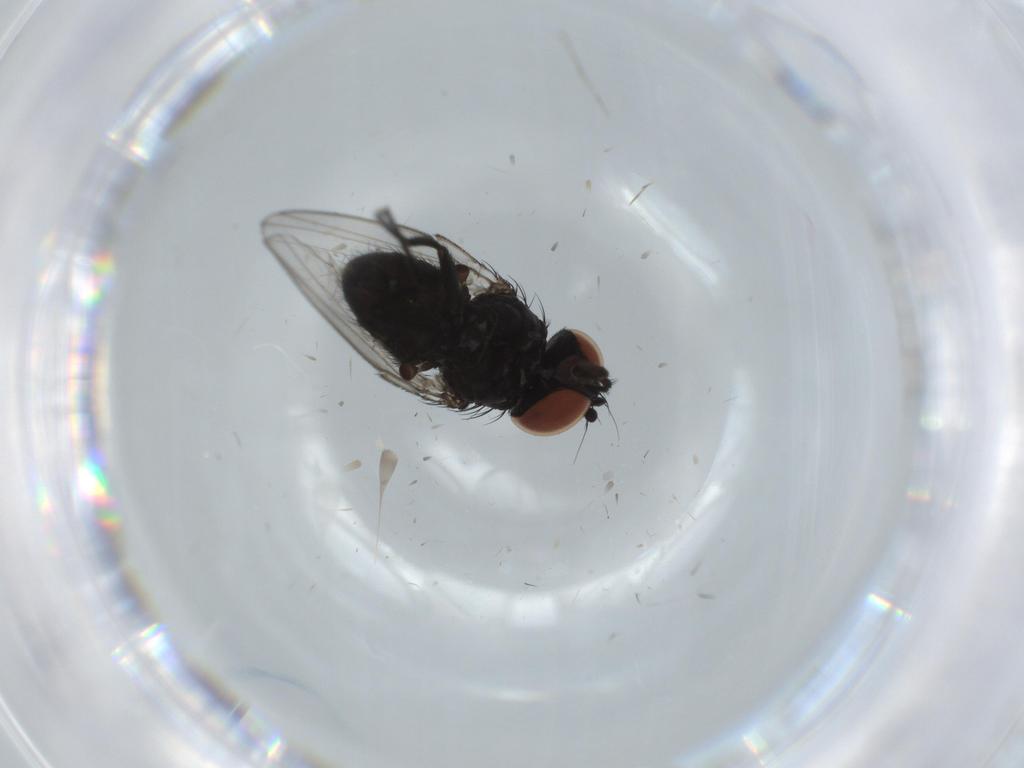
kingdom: Animalia
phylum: Arthropoda
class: Insecta
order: Diptera
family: Milichiidae
